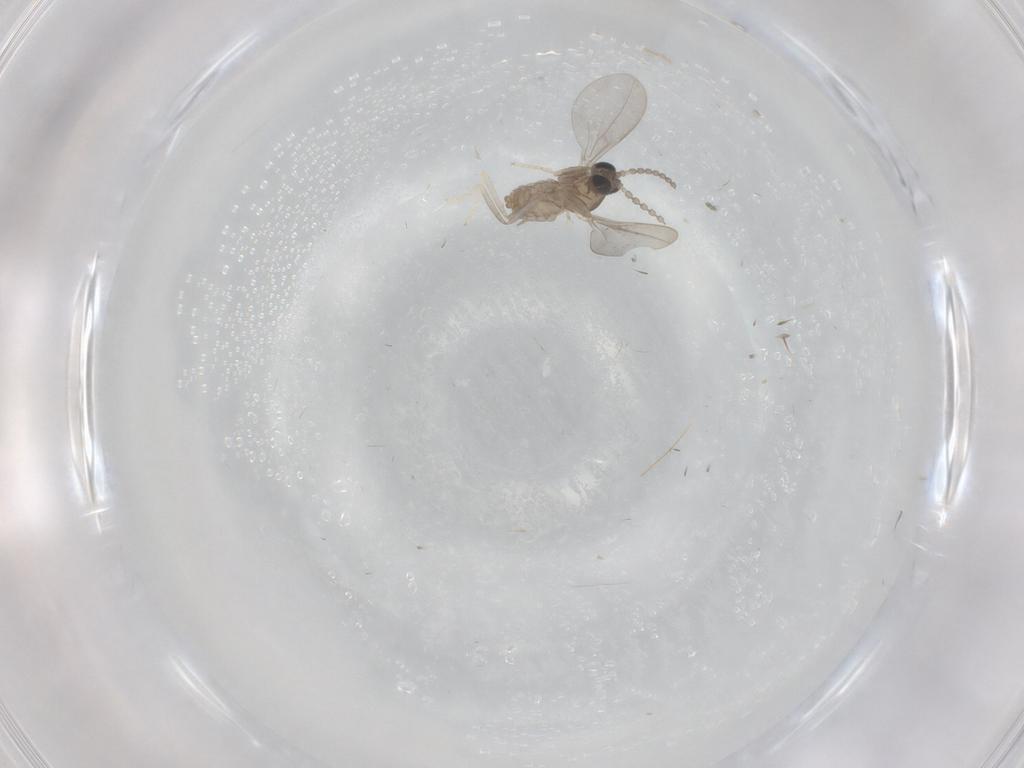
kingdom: Animalia
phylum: Arthropoda
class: Insecta
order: Diptera
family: Cecidomyiidae
